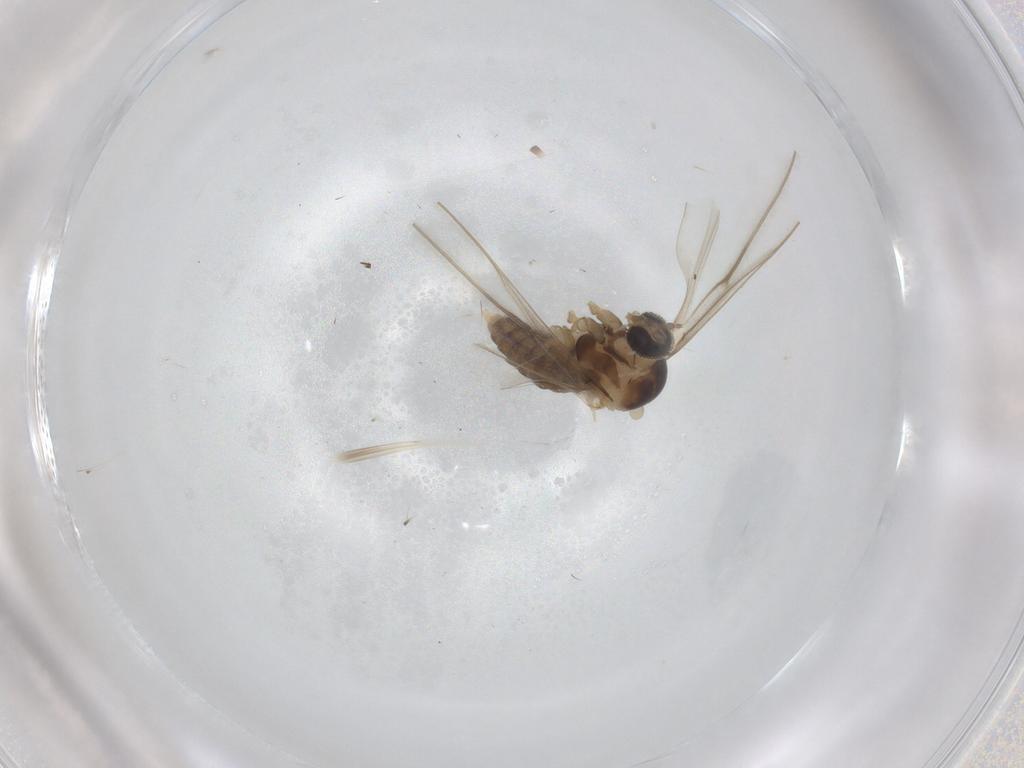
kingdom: Animalia
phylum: Arthropoda
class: Insecta
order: Diptera
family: Cecidomyiidae
